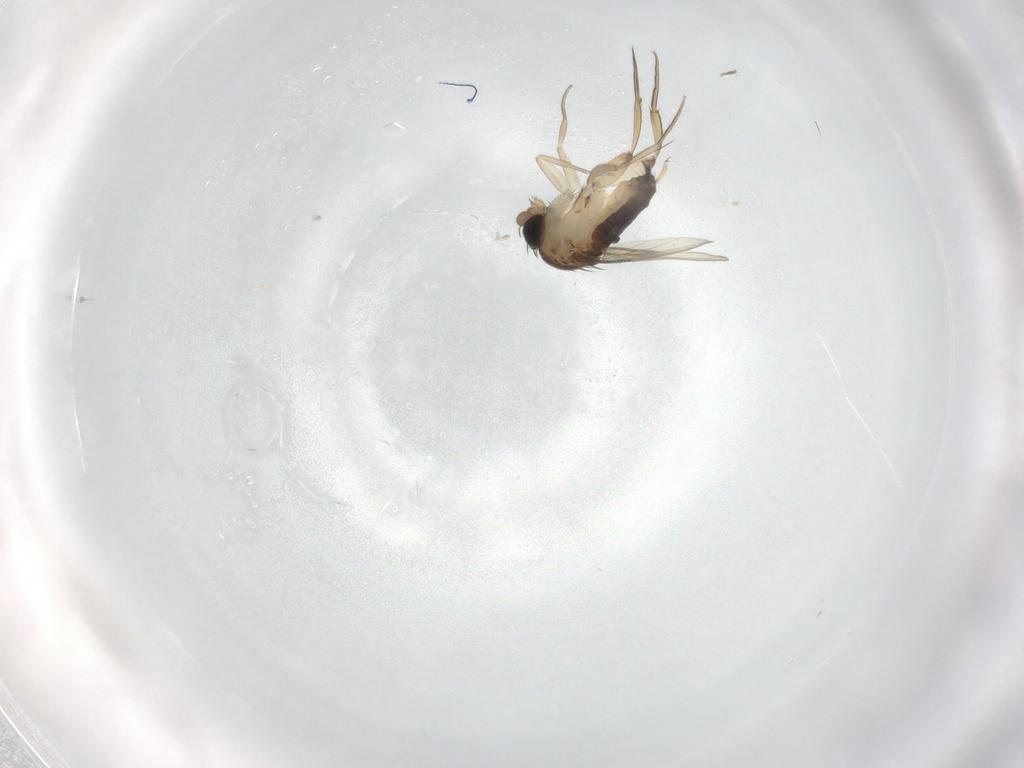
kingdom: Animalia
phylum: Arthropoda
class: Insecta
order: Diptera
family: Phoridae
